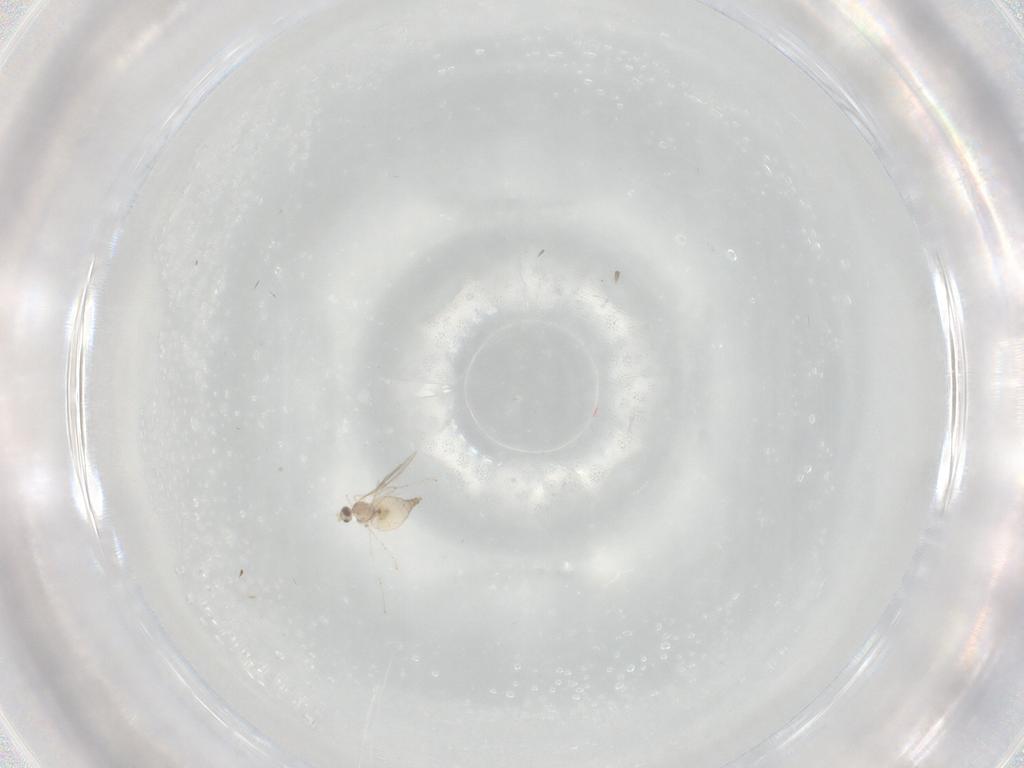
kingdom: Animalia
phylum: Arthropoda
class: Insecta
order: Diptera
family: Cecidomyiidae
